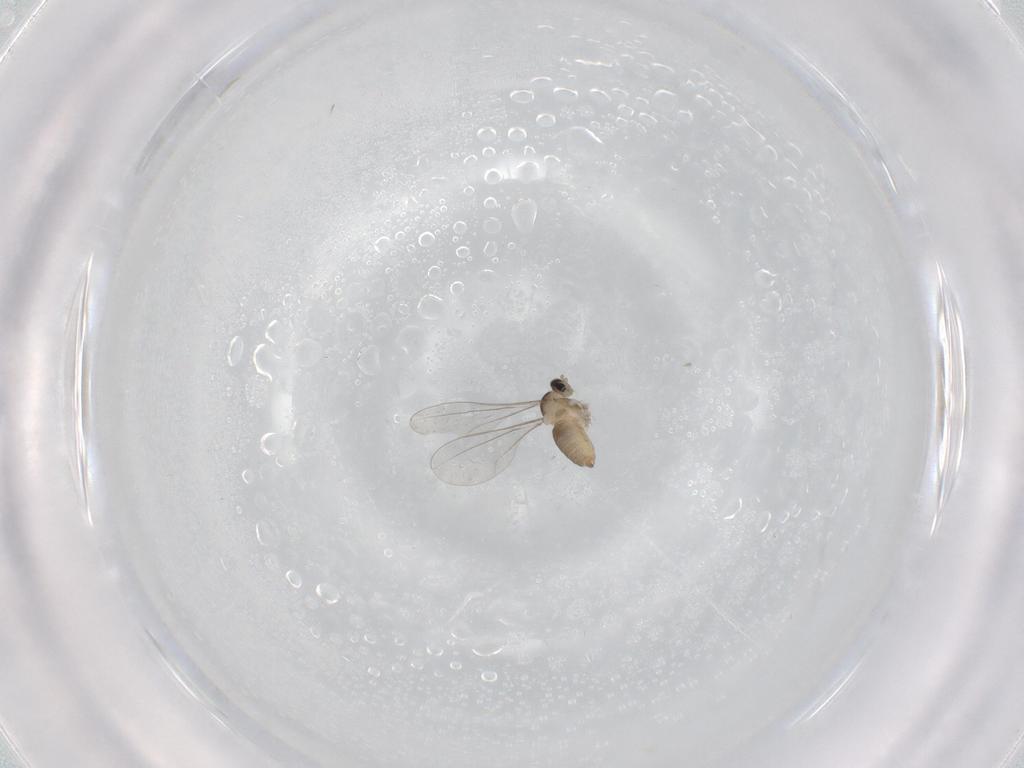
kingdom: Animalia
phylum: Arthropoda
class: Insecta
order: Diptera
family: Cecidomyiidae
